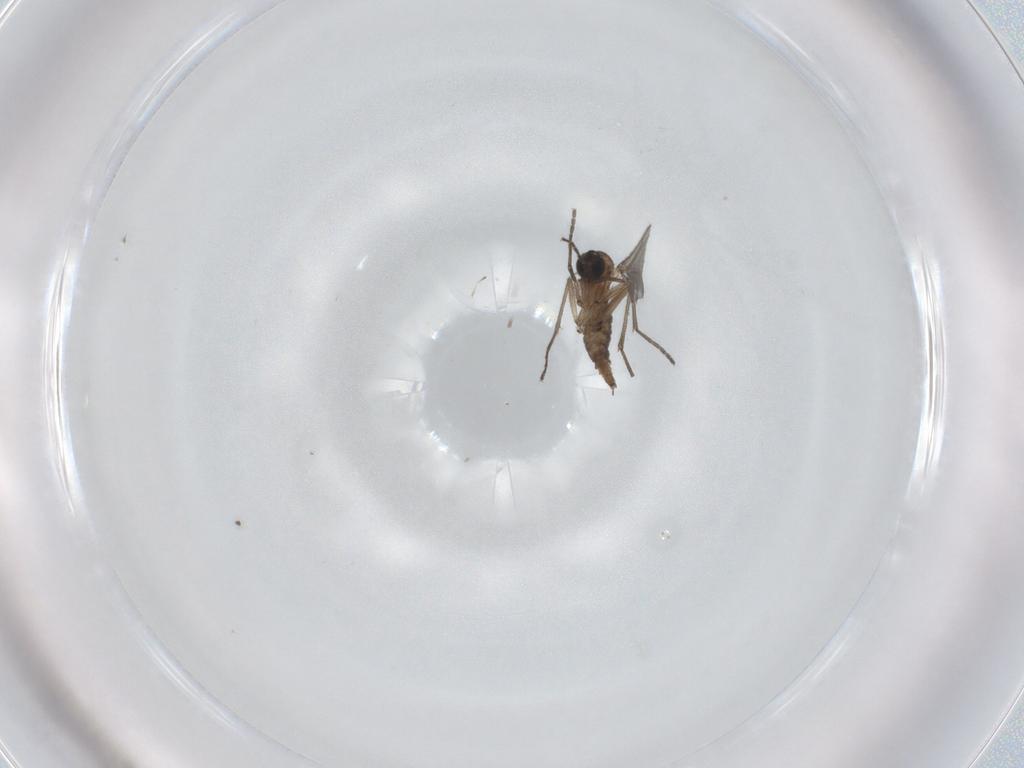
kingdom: Animalia
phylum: Arthropoda
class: Insecta
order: Diptera
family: Sciaridae
